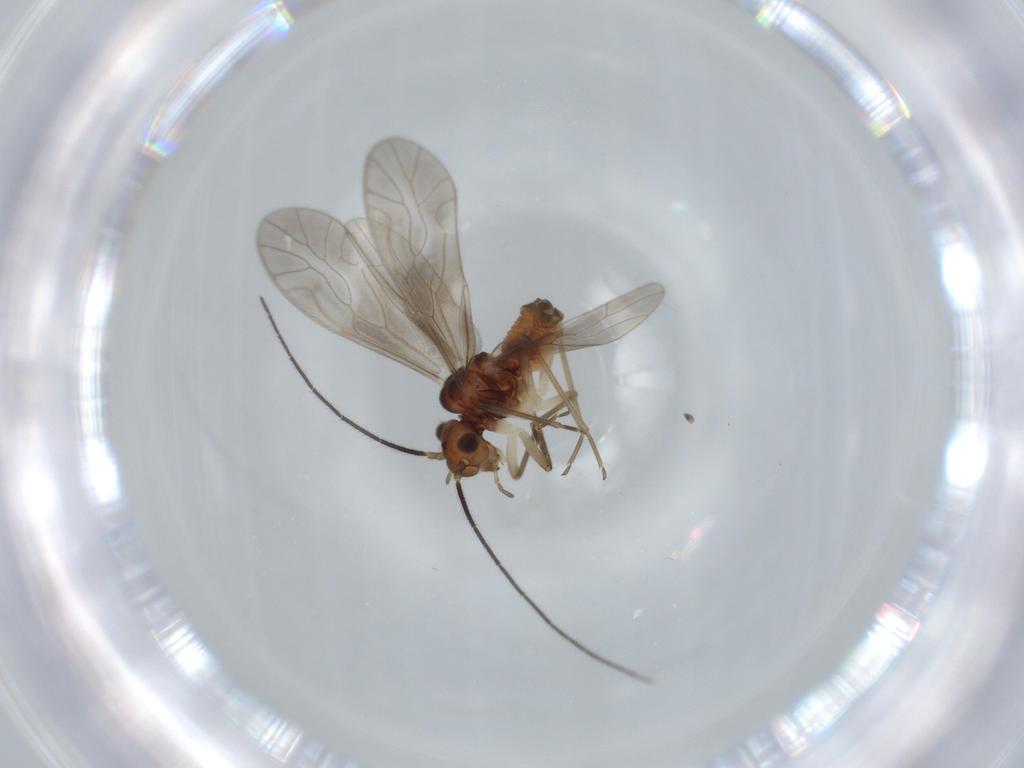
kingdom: Animalia
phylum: Arthropoda
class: Insecta
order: Psocodea
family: Caeciliusidae
